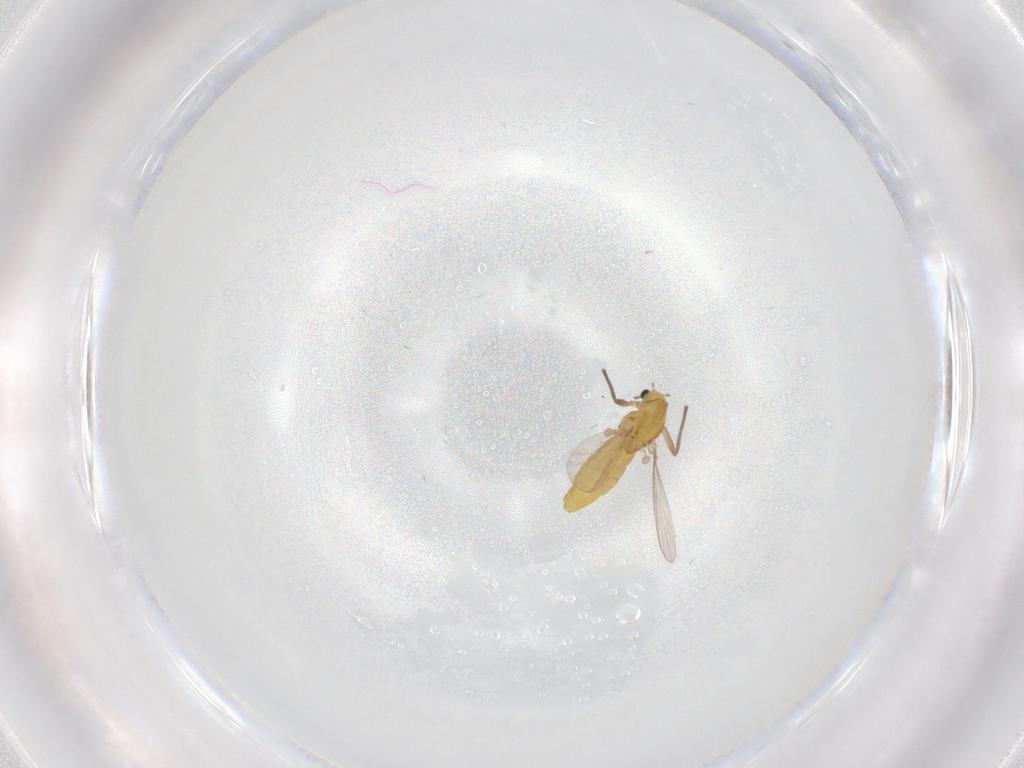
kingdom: Animalia
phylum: Arthropoda
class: Insecta
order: Diptera
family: Chironomidae
